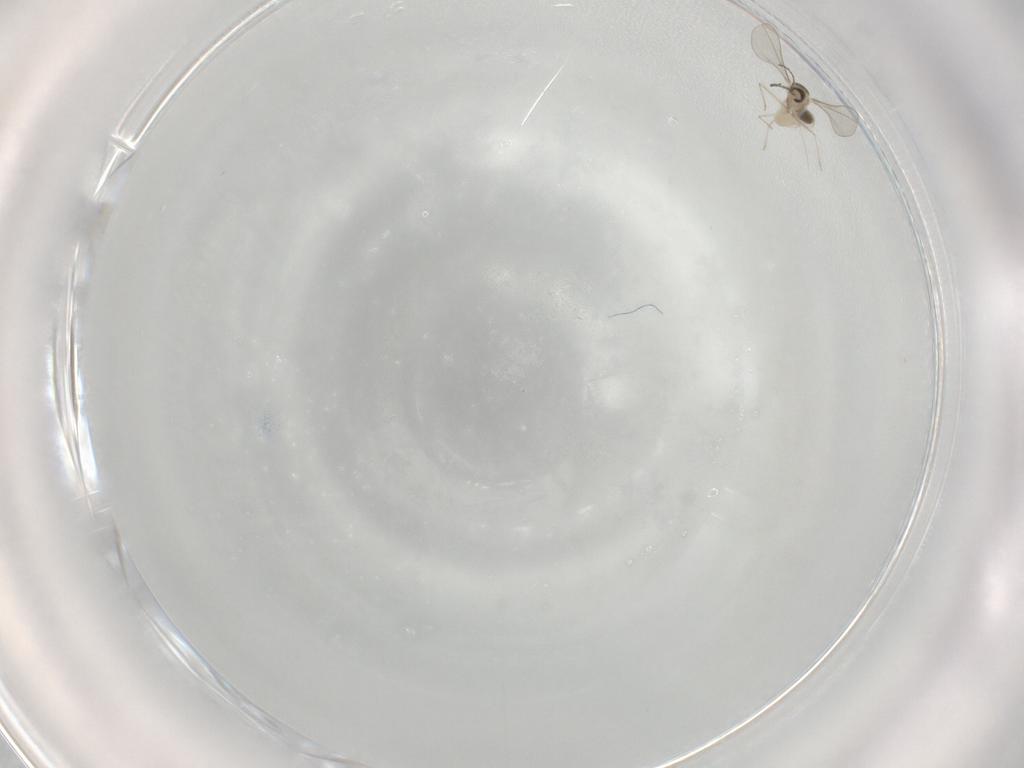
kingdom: Animalia
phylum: Arthropoda
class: Insecta
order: Diptera
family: Cecidomyiidae
